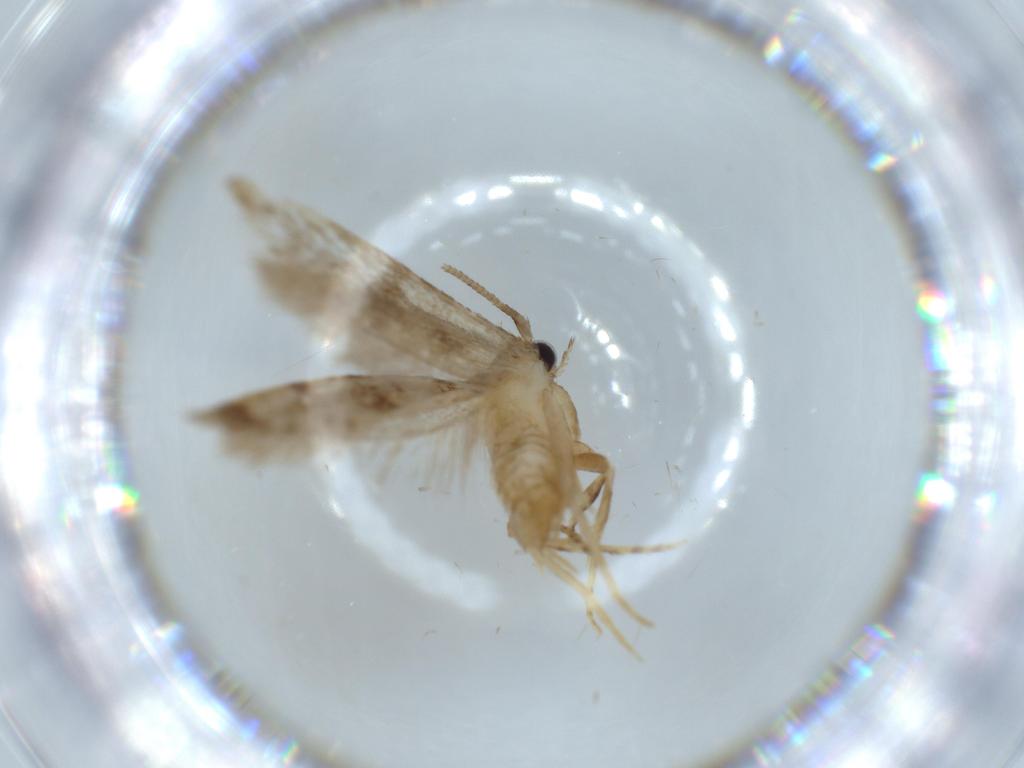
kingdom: Animalia
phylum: Arthropoda
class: Insecta
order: Lepidoptera
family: Tineidae
